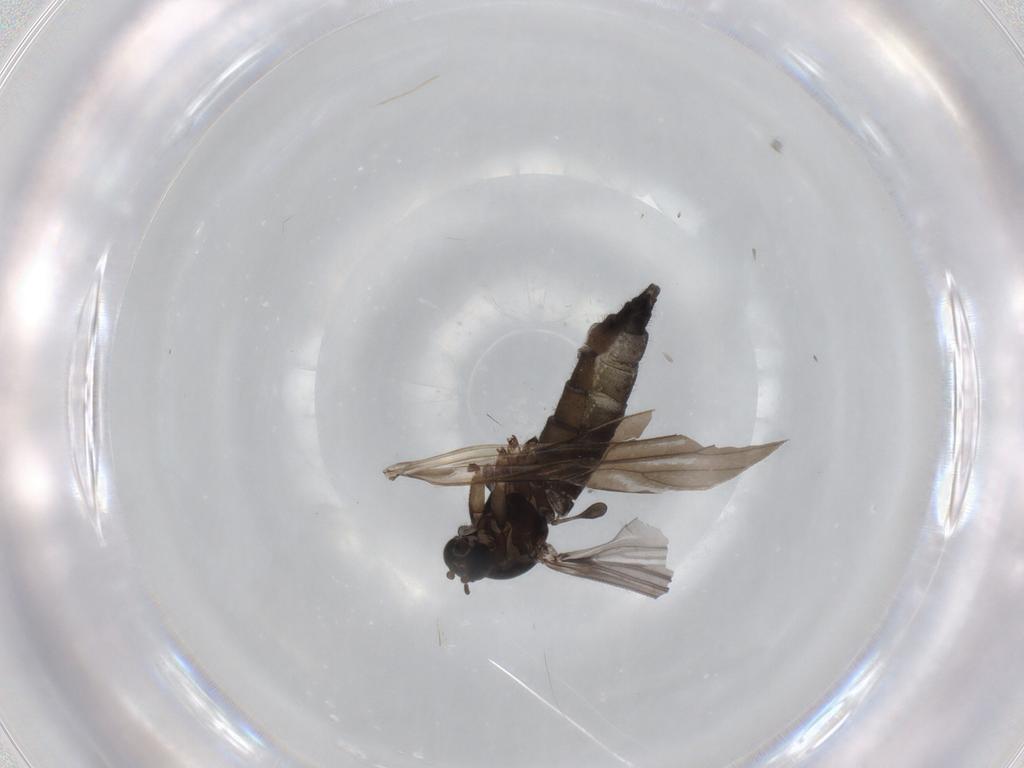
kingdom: Animalia
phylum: Arthropoda
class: Insecta
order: Diptera
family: Sciaridae
